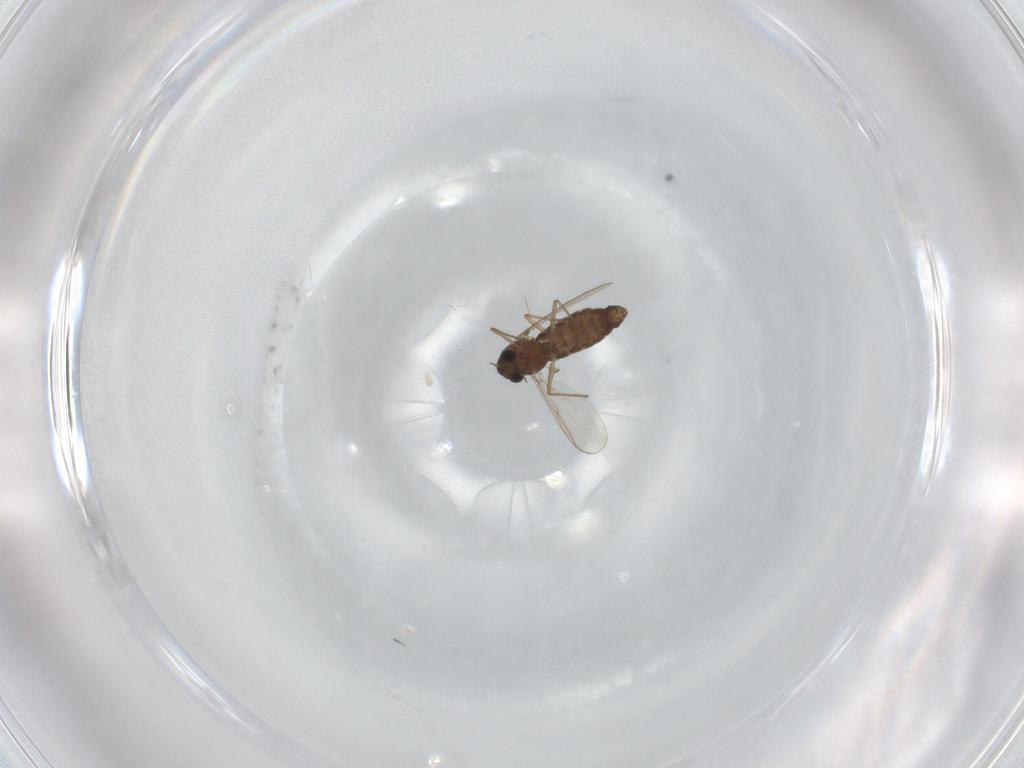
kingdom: Animalia
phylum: Arthropoda
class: Insecta
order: Diptera
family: Chironomidae
